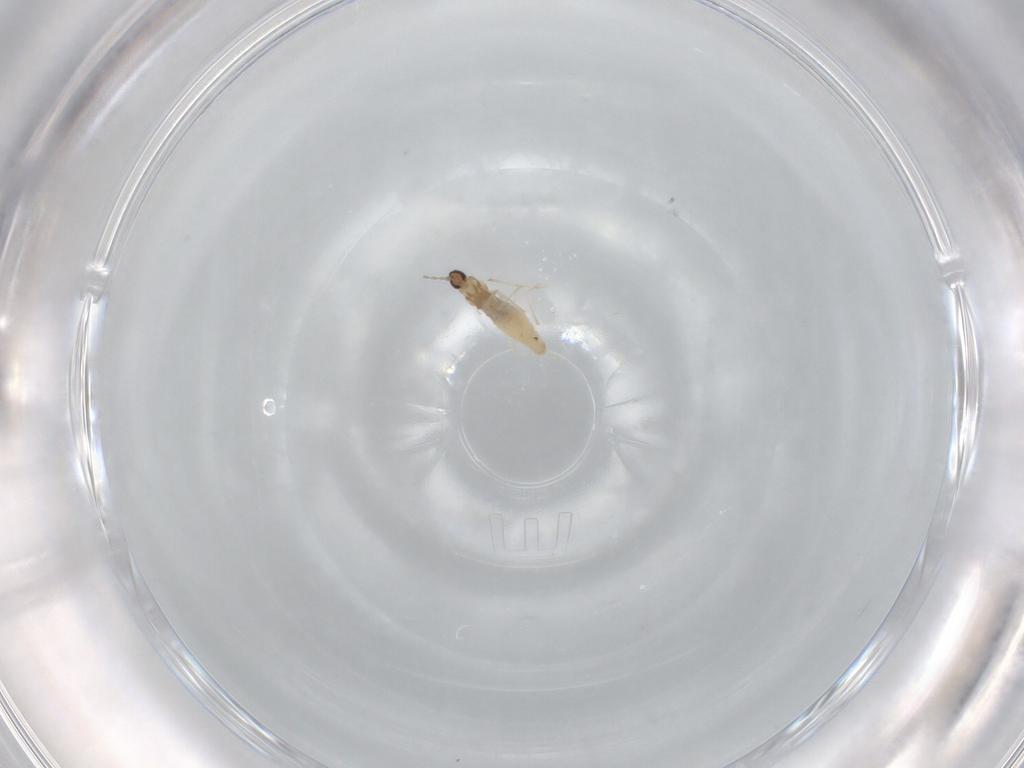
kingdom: Animalia
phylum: Arthropoda
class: Insecta
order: Diptera
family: Cecidomyiidae
